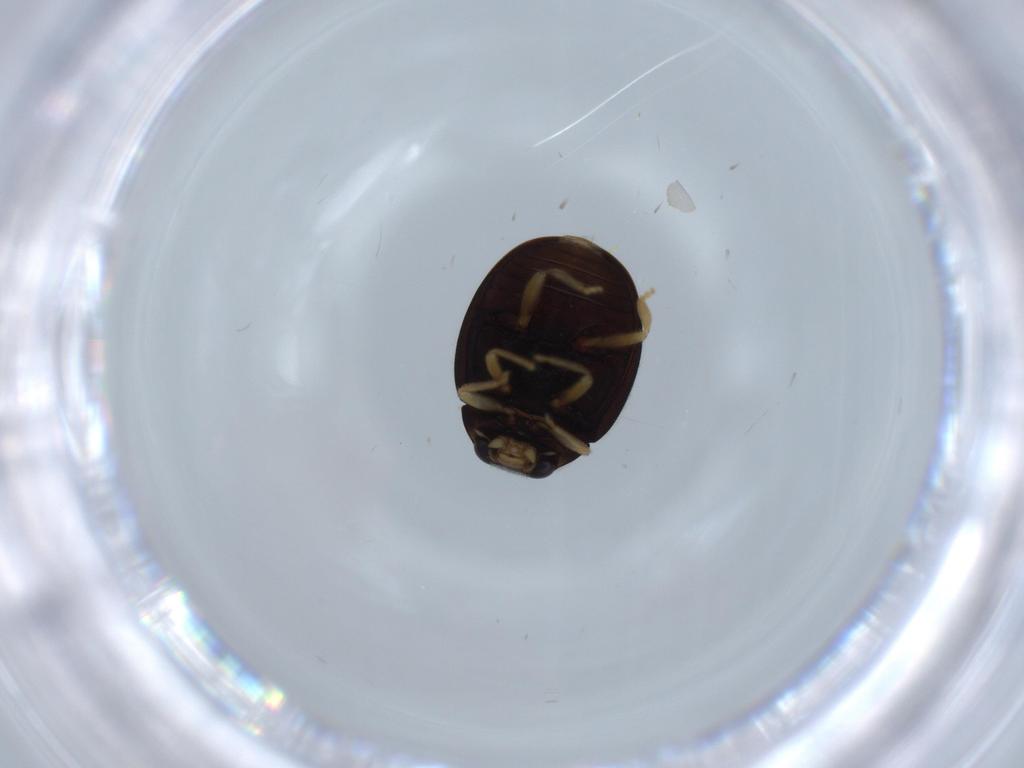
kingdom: Animalia
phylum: Arthropoda
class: Insecta
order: Coleoptera
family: Coccinellidae
